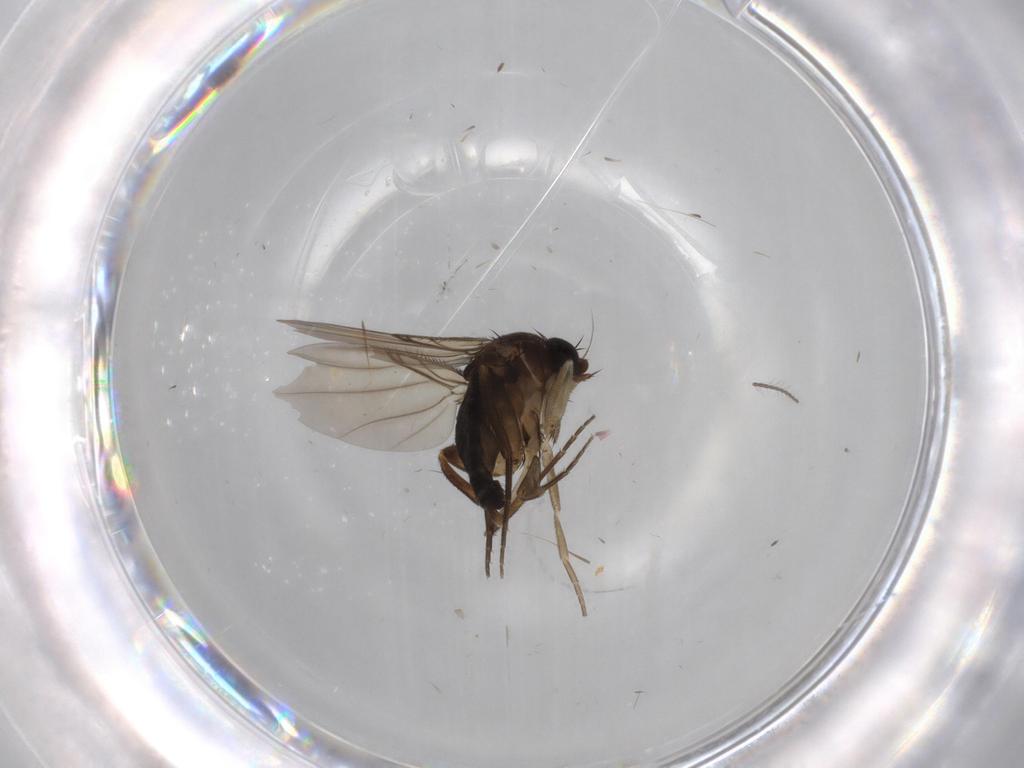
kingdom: Animalia
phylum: Arthropoda
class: Insecta
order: Diptera
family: Phoridae
